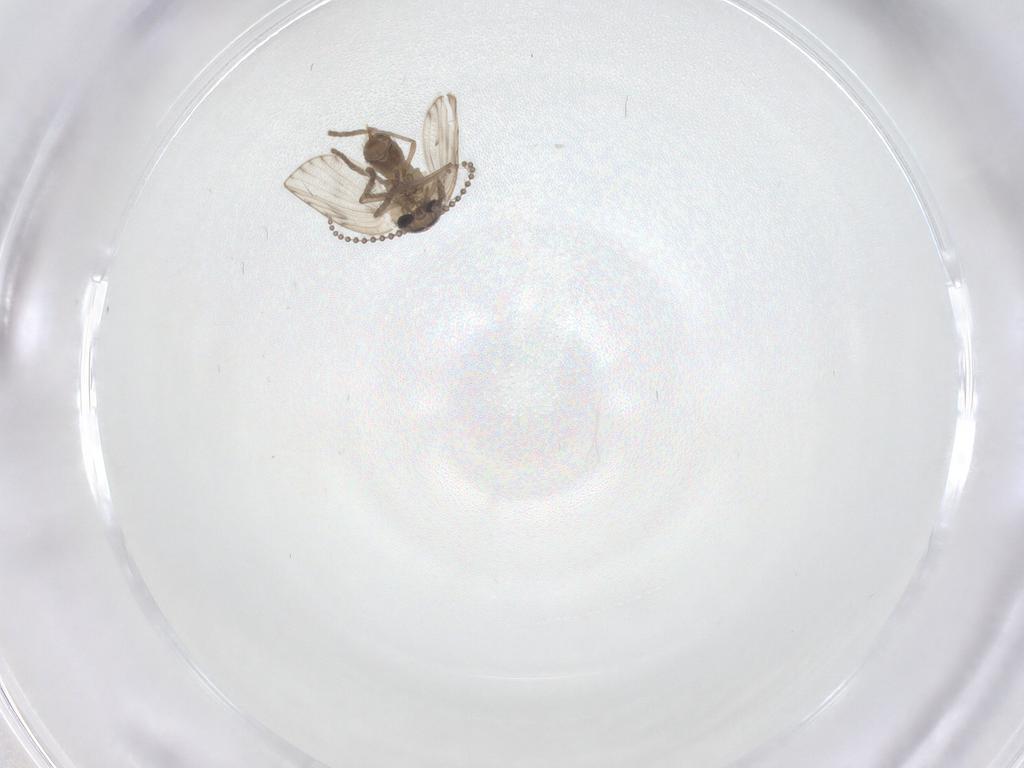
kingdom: Animalia
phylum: Arthropoda
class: Insecta
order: Diptera
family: Psychodidae
